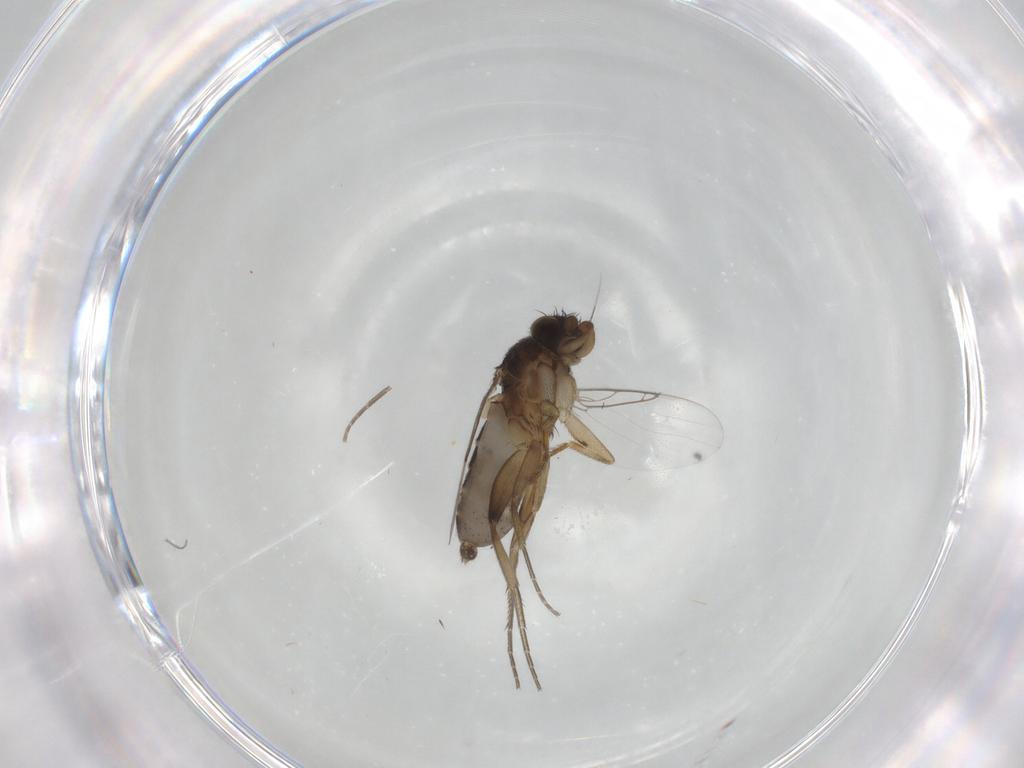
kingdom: Animalia
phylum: Arthropoda
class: Insecta
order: Diptera
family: Phoridae
